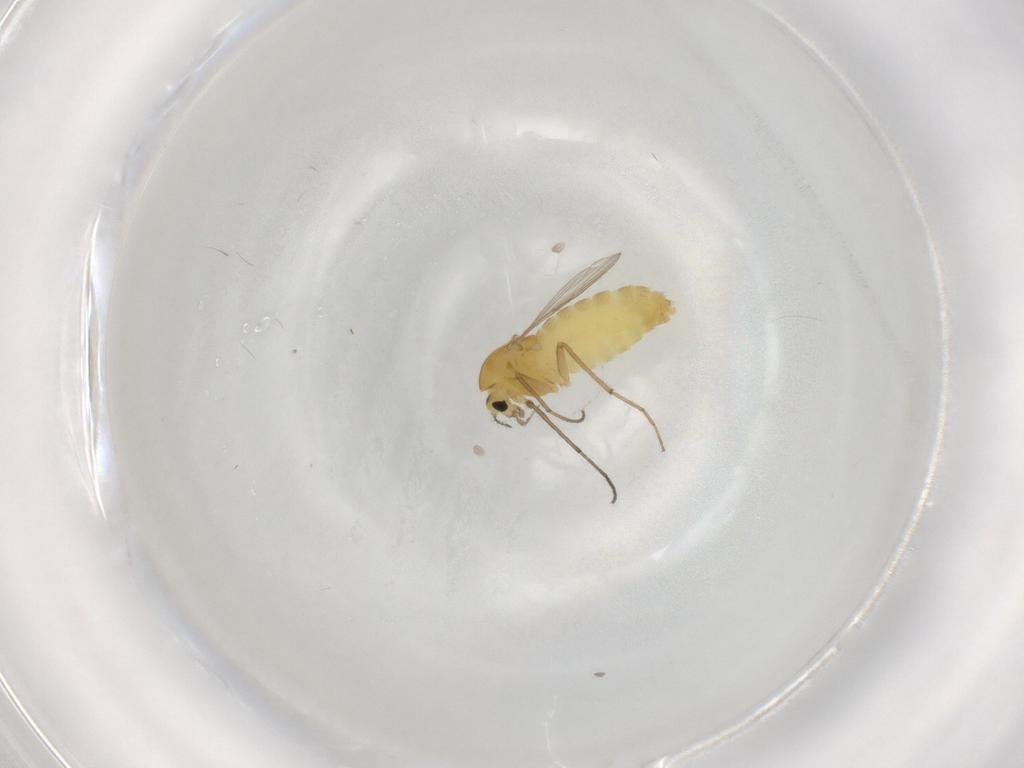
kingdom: Animalia
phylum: Arthropoda
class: Insecta
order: Diptera
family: Chironomidae
